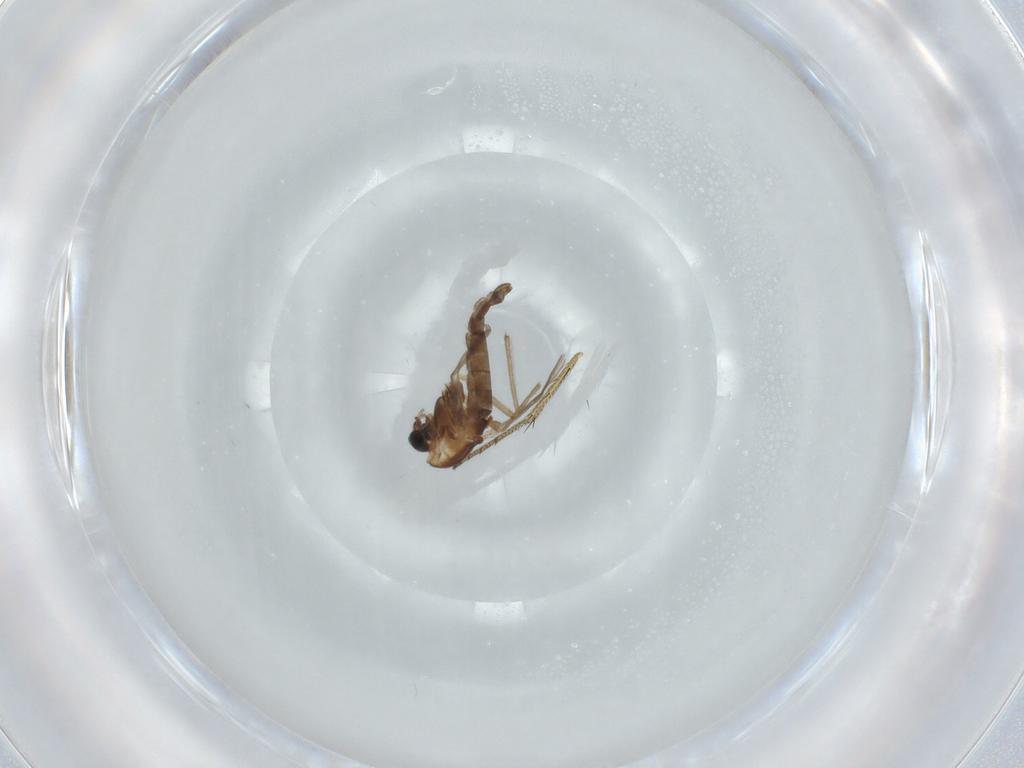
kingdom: Animalia
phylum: Arthropoda
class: Insecta
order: Diptera
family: Chironomidae
